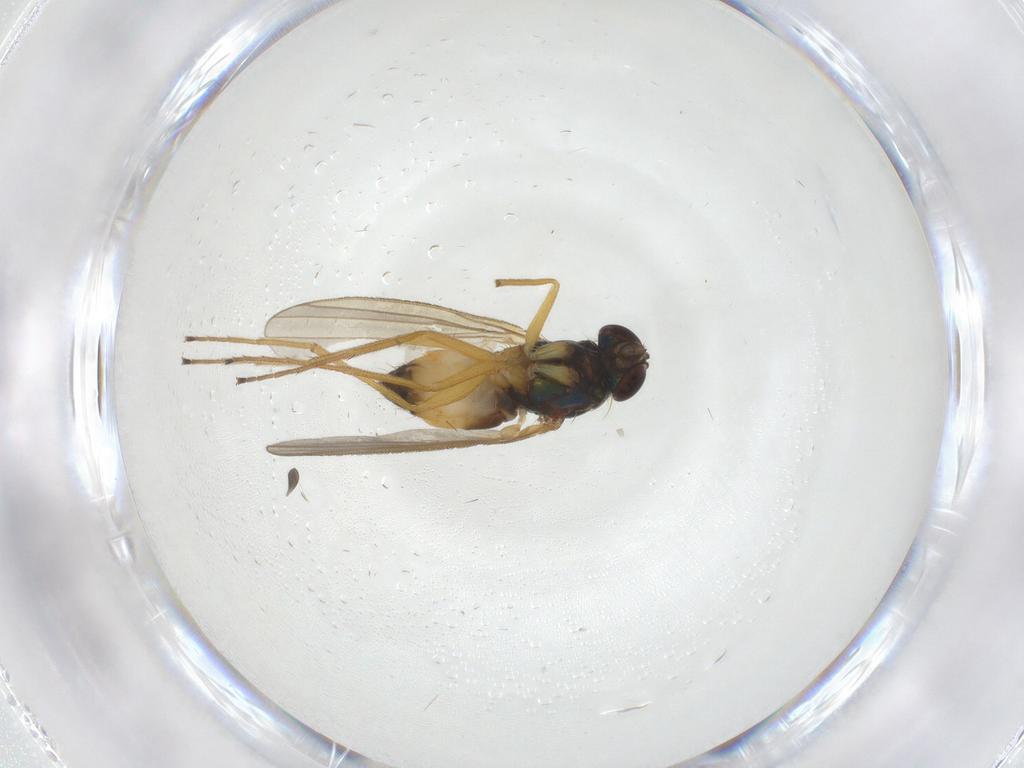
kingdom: Animalia
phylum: Arthropoda
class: Insecta
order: Diptera
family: Dolichopodidae
